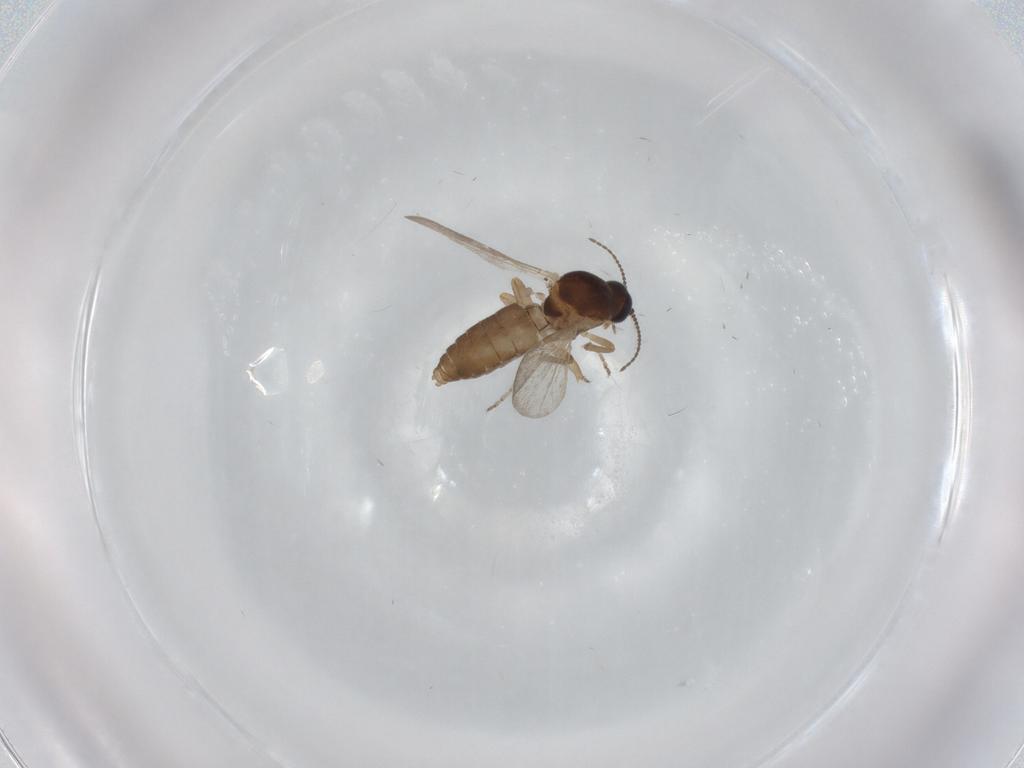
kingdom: Animalia
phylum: Arthropoda
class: Insecta
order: Diptera
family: Ceratopogonidae
